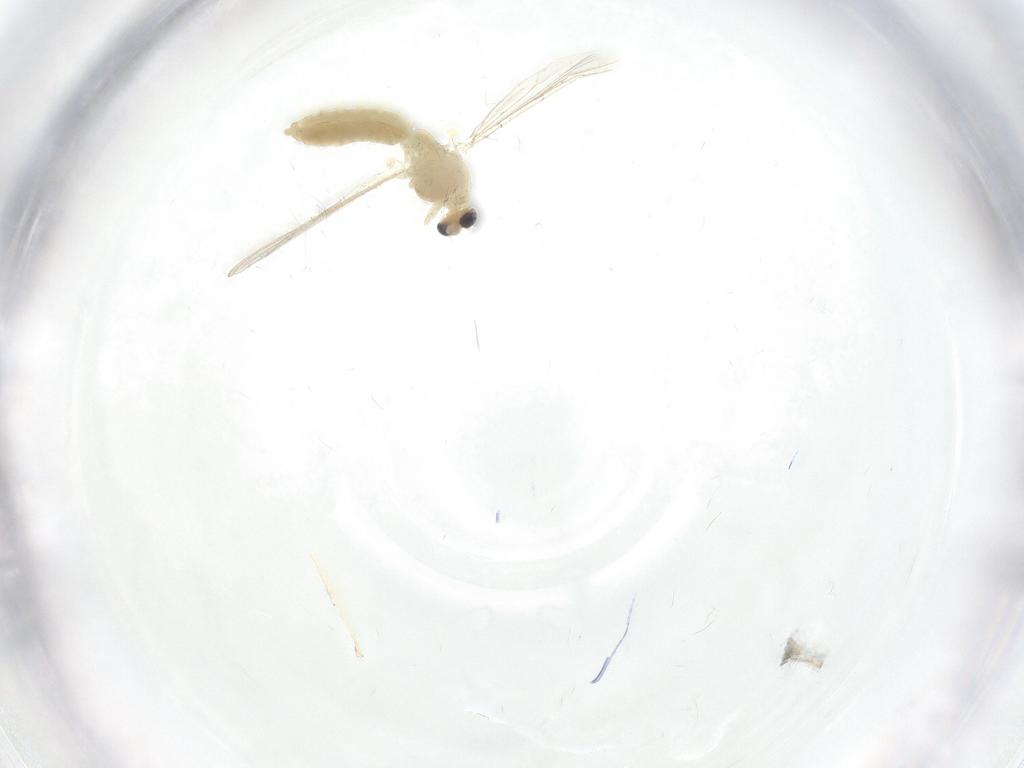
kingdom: Animalia
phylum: Arthropoda
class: Insecta
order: Diptera
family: Chironomidae
